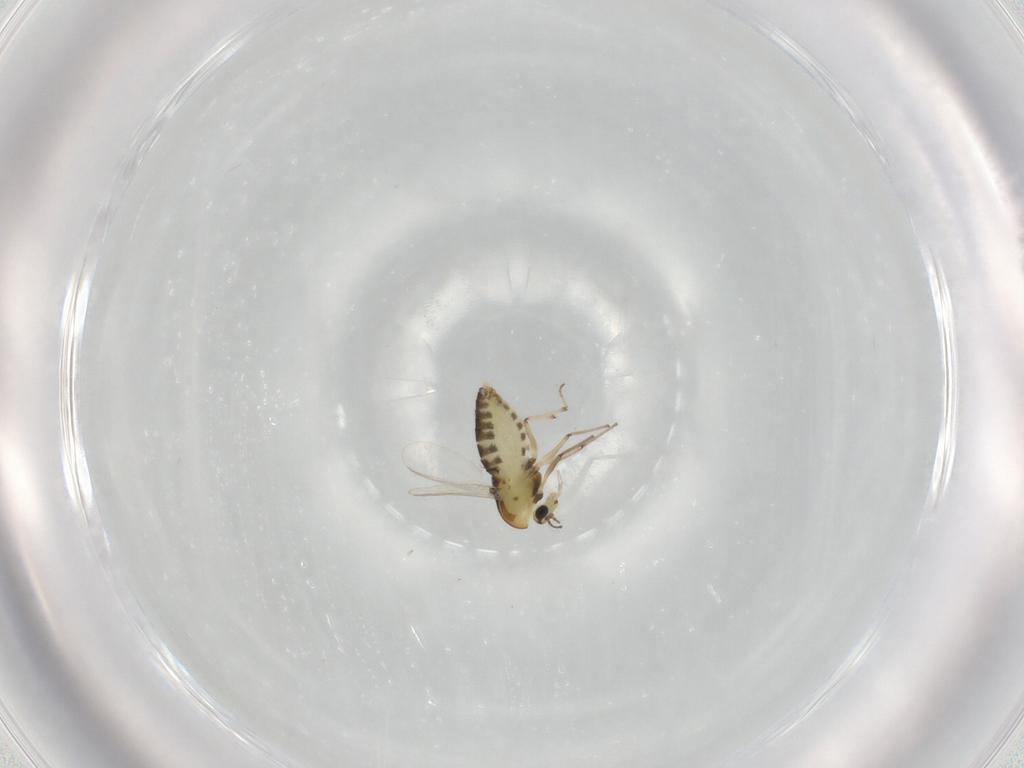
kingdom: Animalia
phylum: Arthropoda
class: Insecta
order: Diptera
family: Chironomidae
